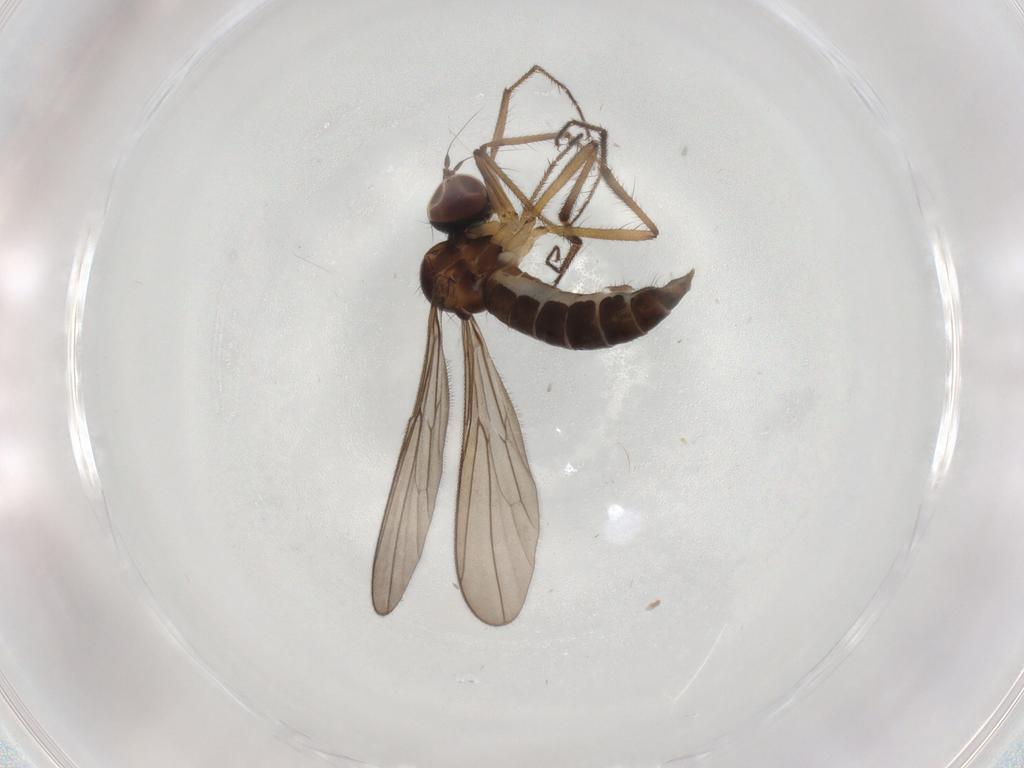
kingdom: Animalia
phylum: Arthropoda
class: Insecta
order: Diptera
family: Hybotidae
